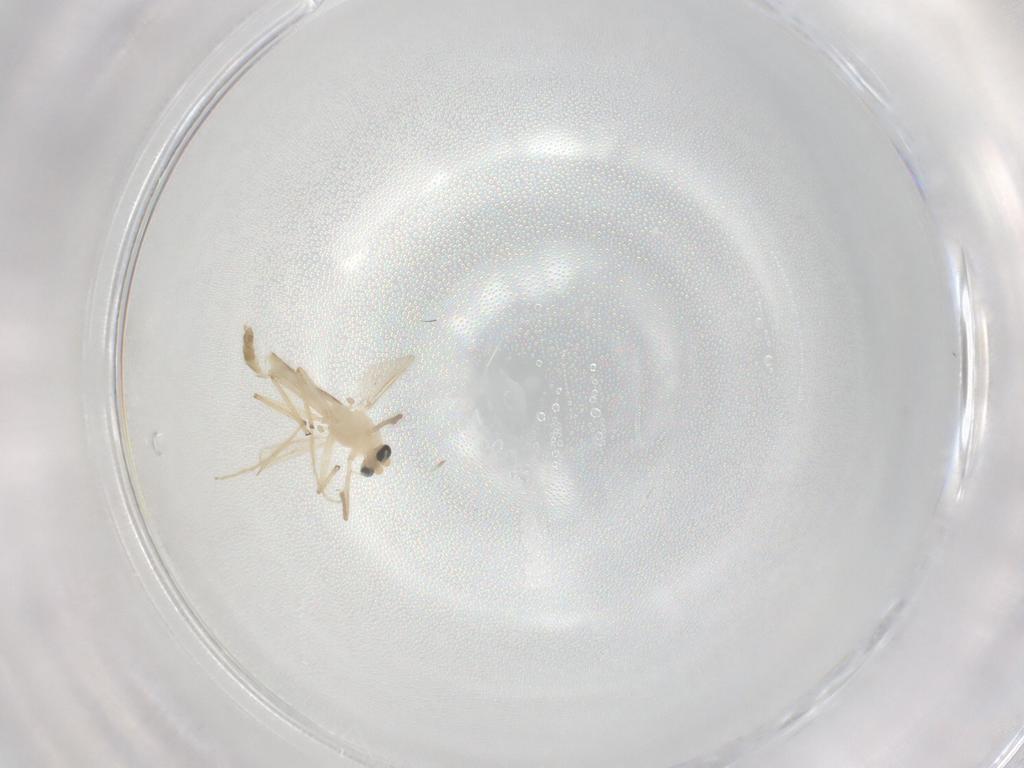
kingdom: Animalia
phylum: Arthropoda
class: Insecta
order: Diptera
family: Chironomidae
